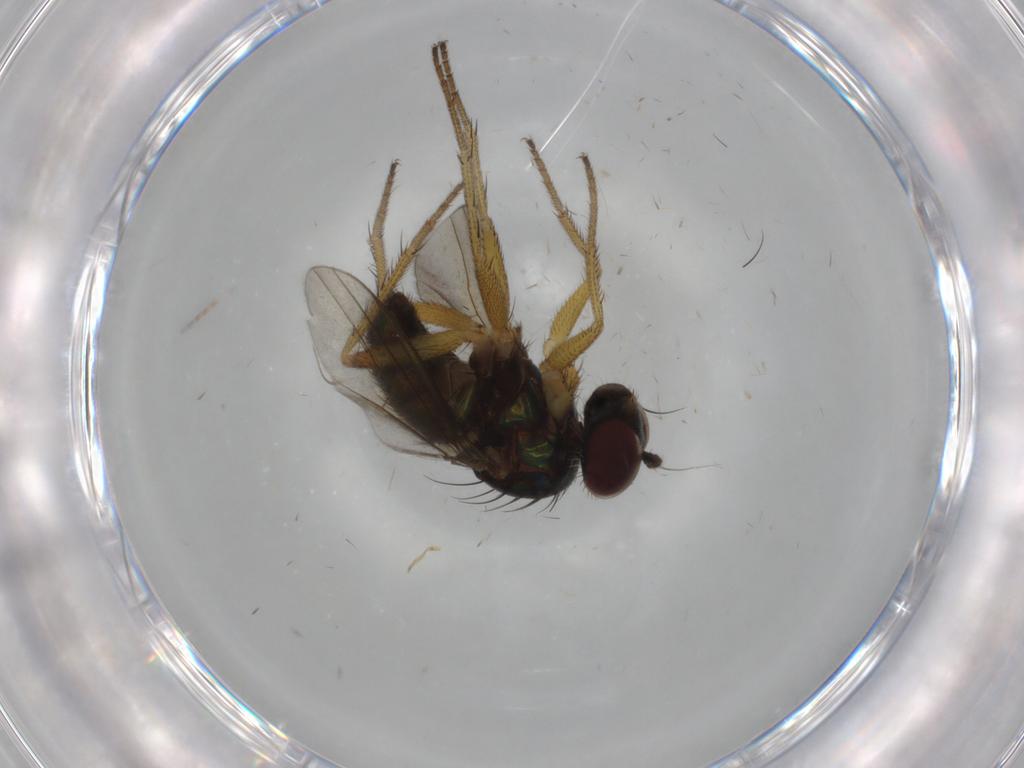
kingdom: Animalia
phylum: Arthropoda
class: Insecta
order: Diptera
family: Dolichopodidae
